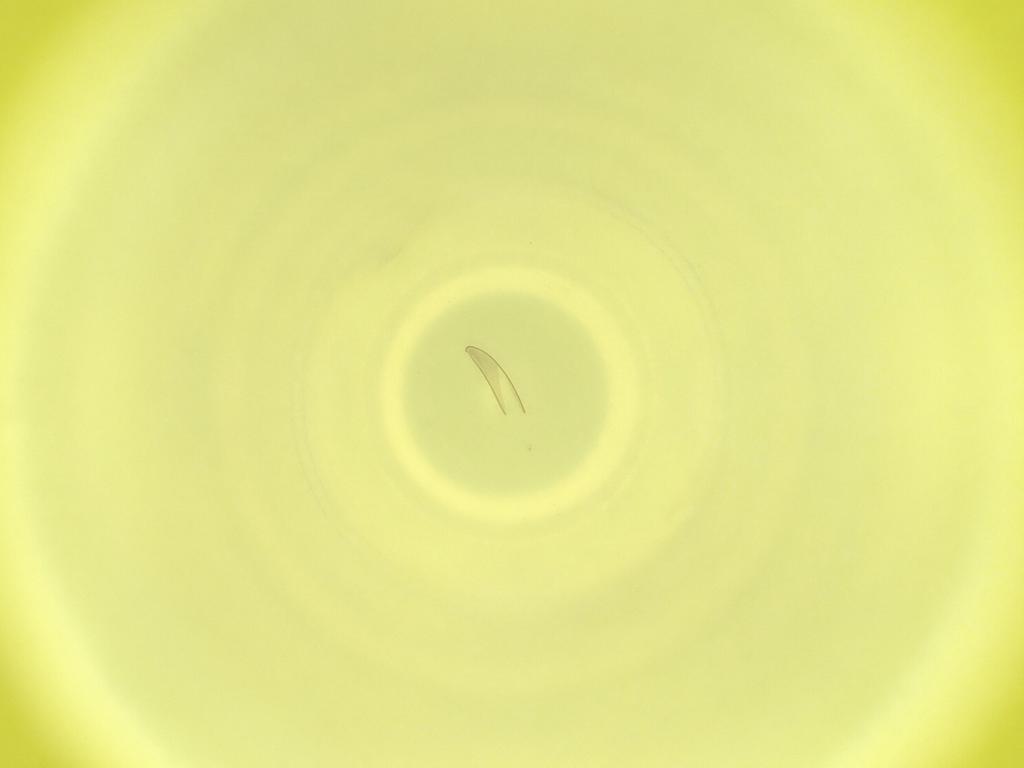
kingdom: Animalia
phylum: Arthropoda
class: Insecta
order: Diptera
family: Cecidomyiidae
